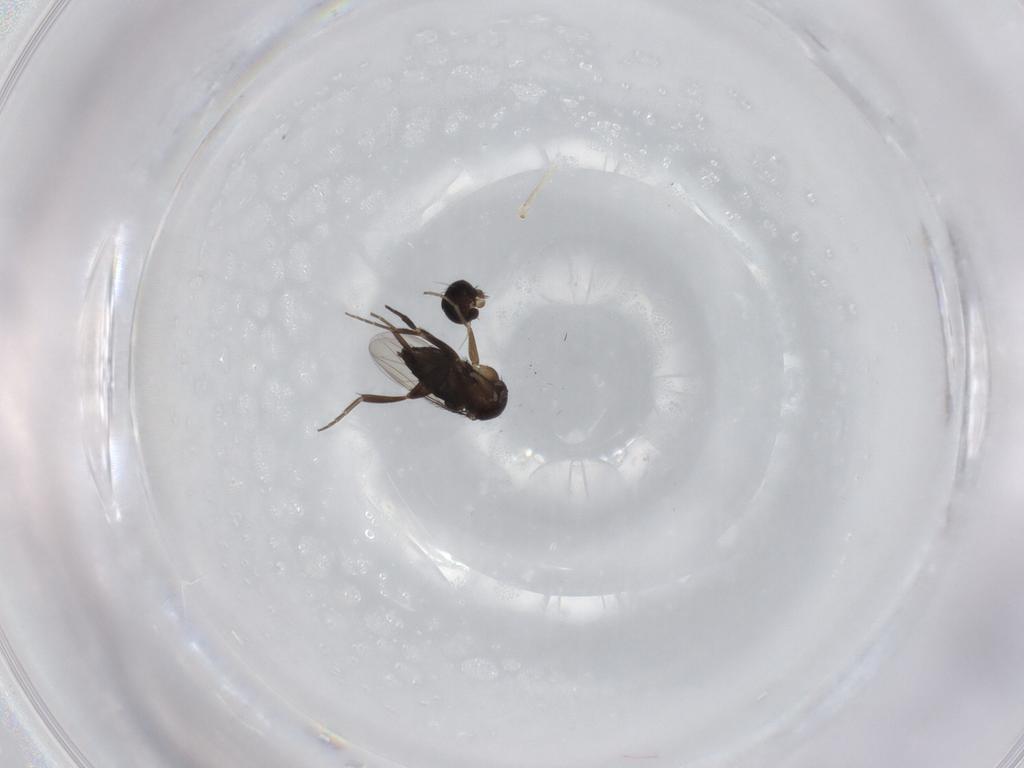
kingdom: Animalia
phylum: Arthropoda
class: Insecta
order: Diptera
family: Phoridae
